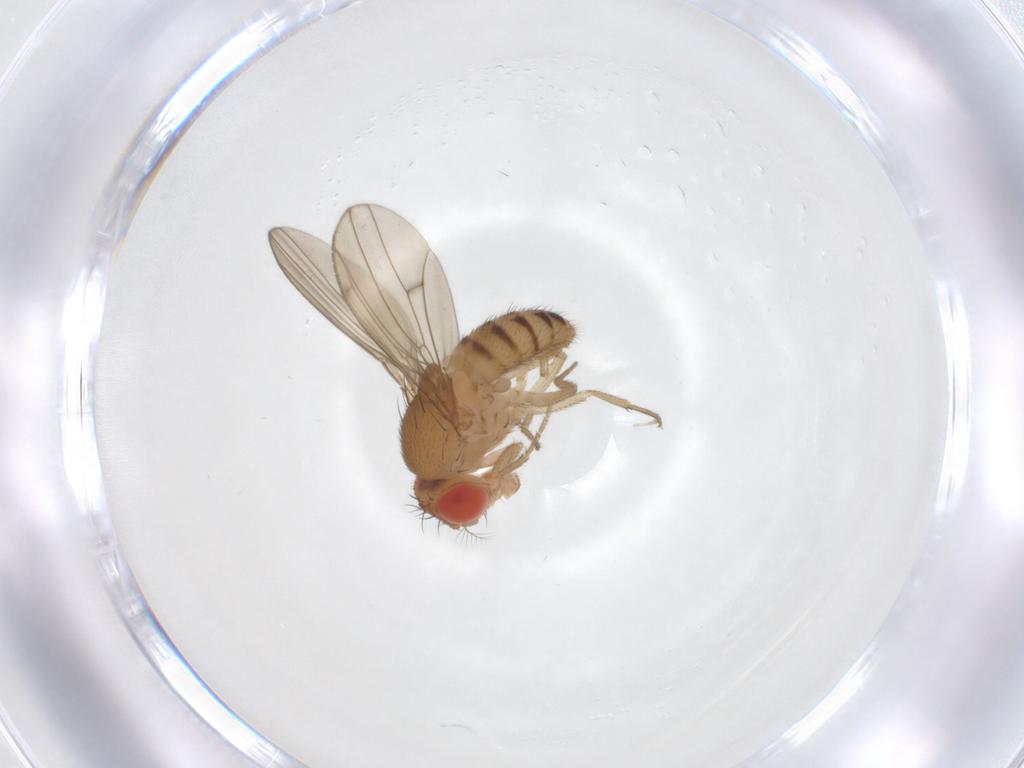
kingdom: Animalia
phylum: Arthropoda
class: Insecta
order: Diptera
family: Drosophilidae
